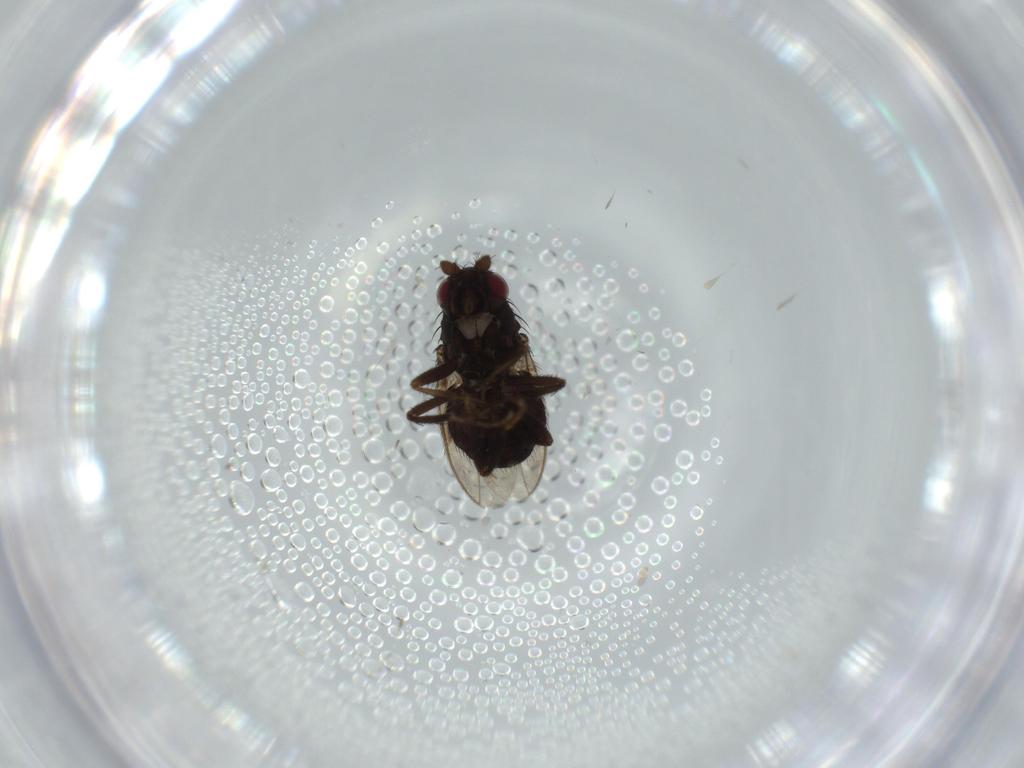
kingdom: Animalia
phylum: Arthropoda
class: Insecta
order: Diptera
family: Sphaeroceridae
